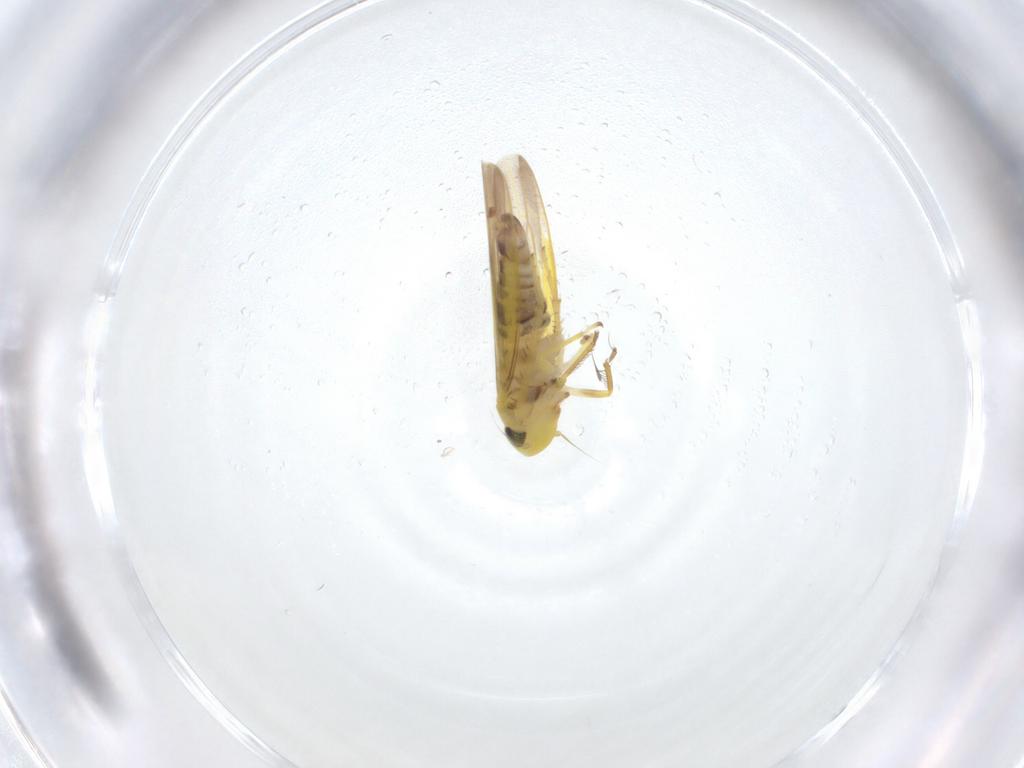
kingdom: Animalia
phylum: Arthropoda
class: Insecta
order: Hemiptera
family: Cicadellidae
